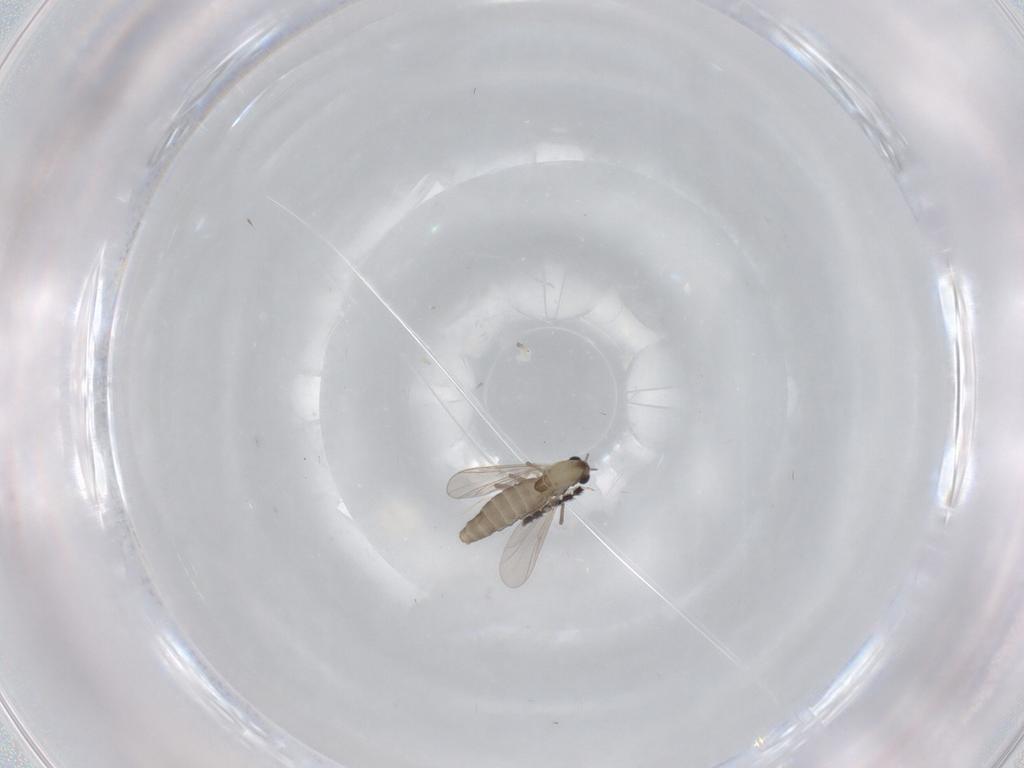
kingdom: Animalia
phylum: Arthropoda
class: Insecta
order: Diptera
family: Sciaridae
